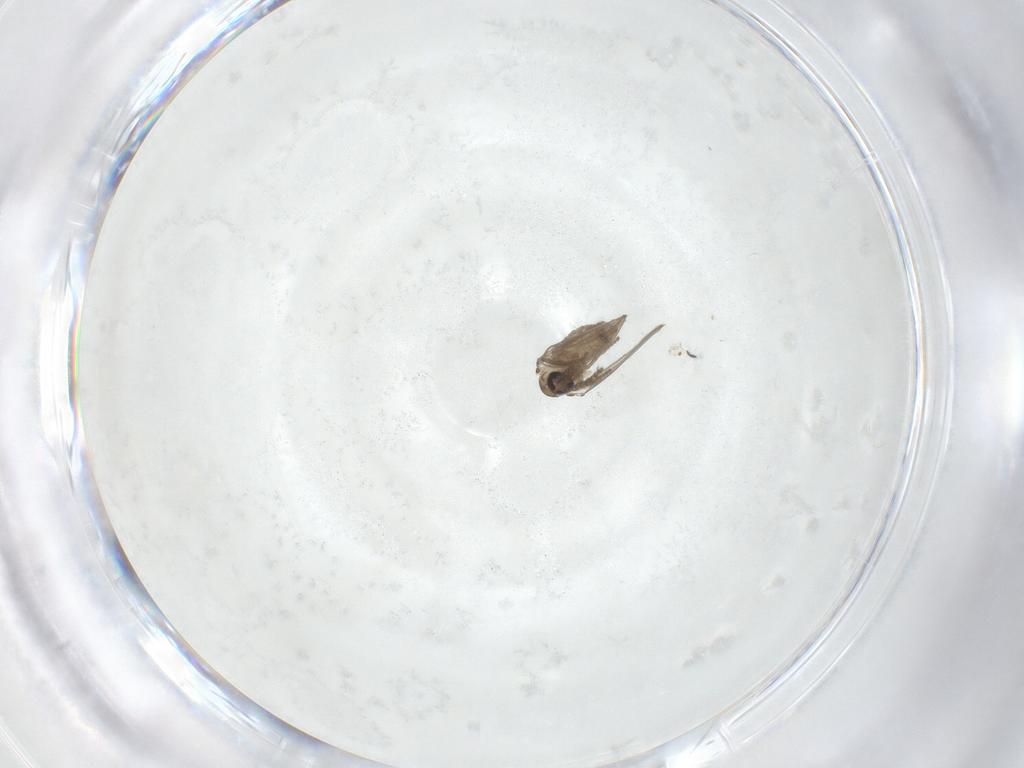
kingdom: Animalia
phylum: Arthropoda
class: Insecta
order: Diptera
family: Psychodidae
